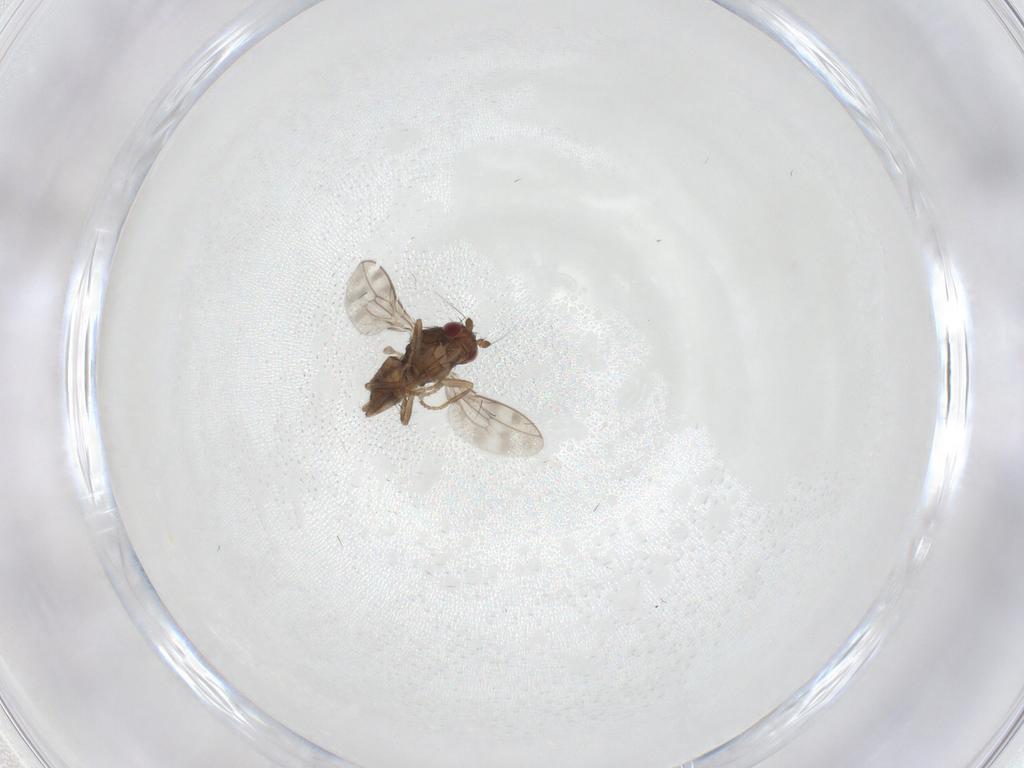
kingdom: Animalia
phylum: Arthropoda
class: Insecta
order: Diptera
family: Sphaeroceridae
